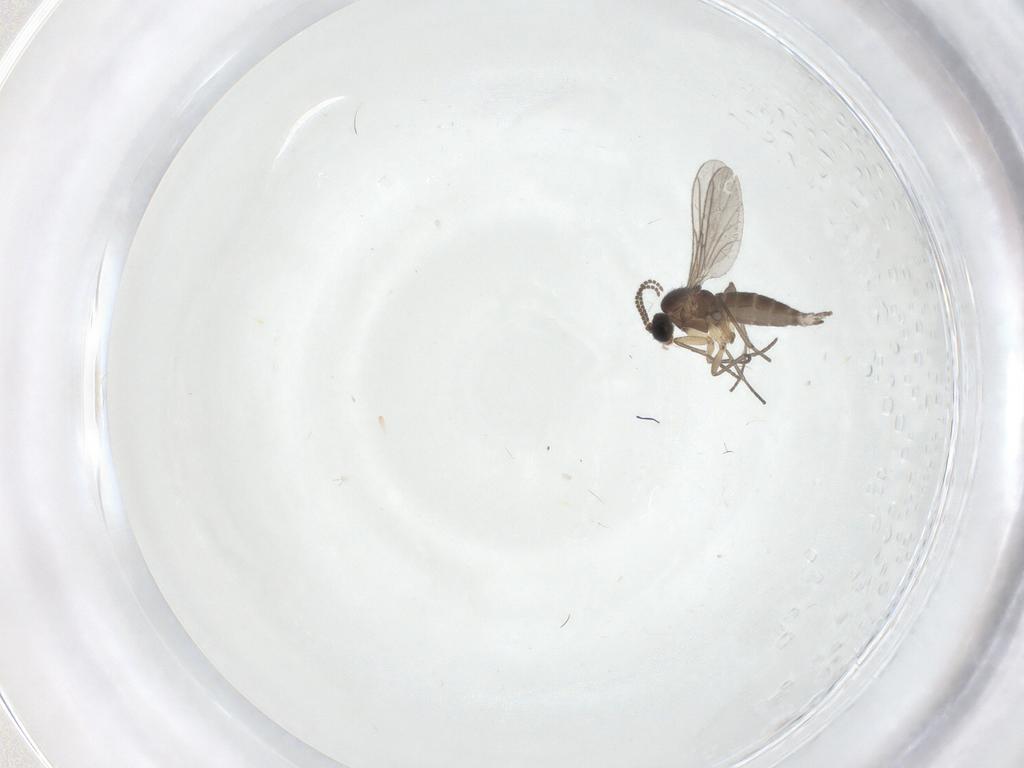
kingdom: Animalia
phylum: Arthropoda
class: Insecta
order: Diptera
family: Sciaridae
